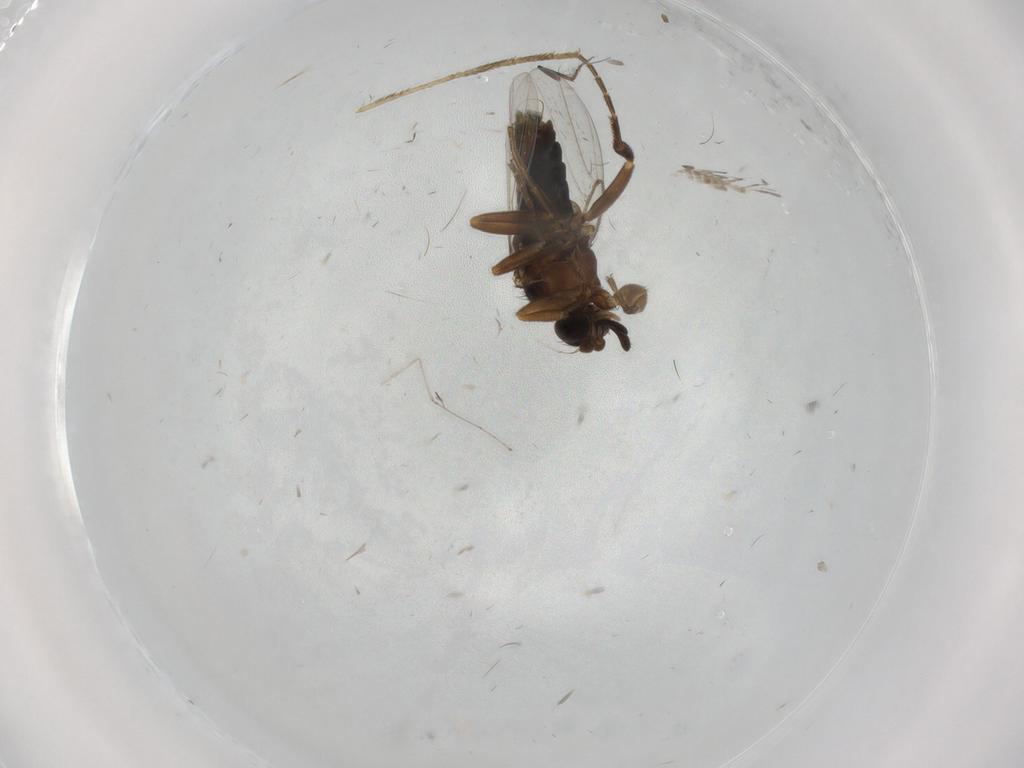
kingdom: Animalia
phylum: Arthropoda
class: Insecta
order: Diptera
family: Phoridae
